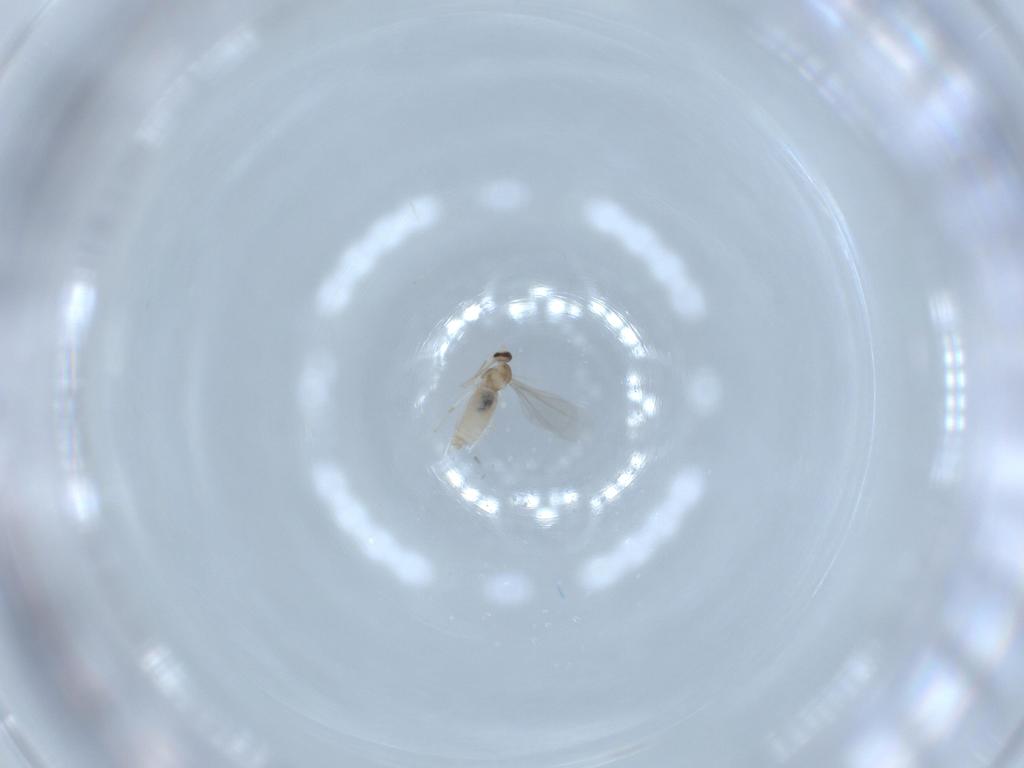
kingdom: Animalia
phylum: Arthropoda
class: Insecta
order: Diptera
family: Cecidomyiidae
